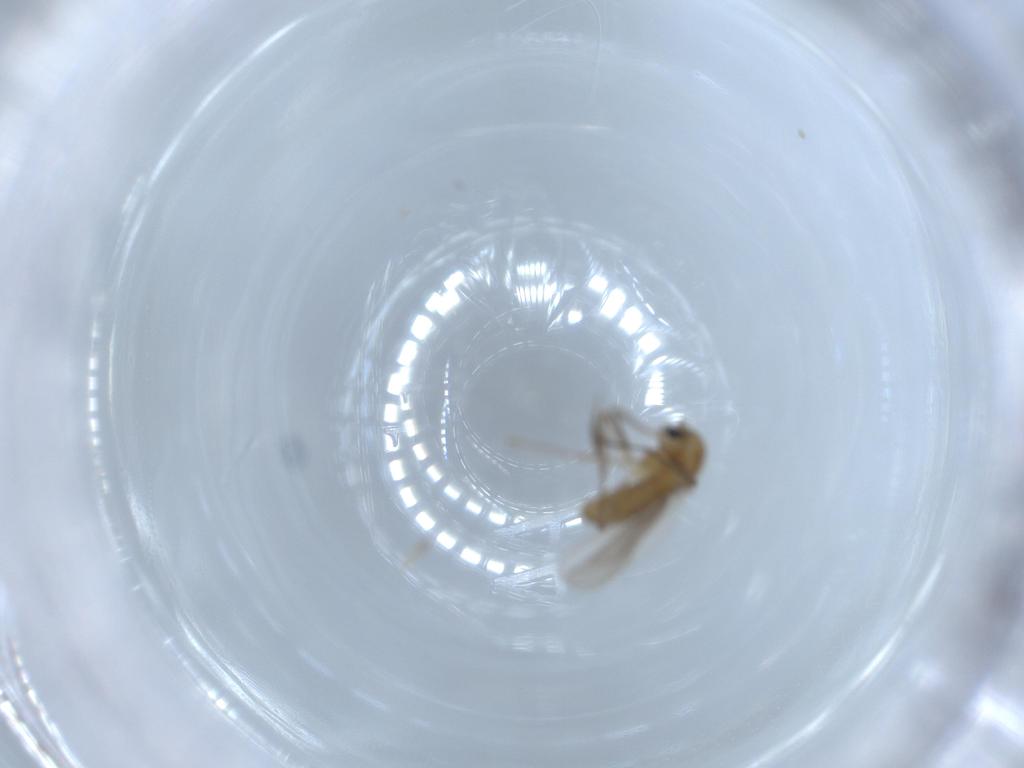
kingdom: Animalia
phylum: Arthropoda
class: Insecta
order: Diptera
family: Chironomidae
